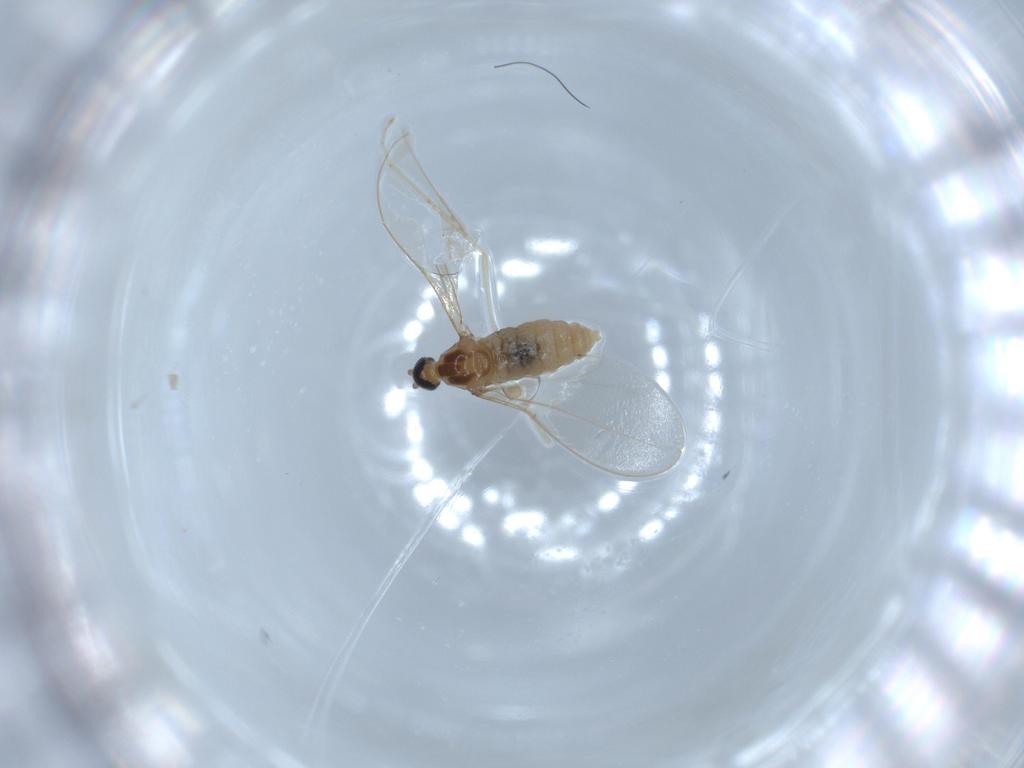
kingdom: Animalia
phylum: Arthropoda
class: Insecta
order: Diptera
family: Cecidomyiidae
